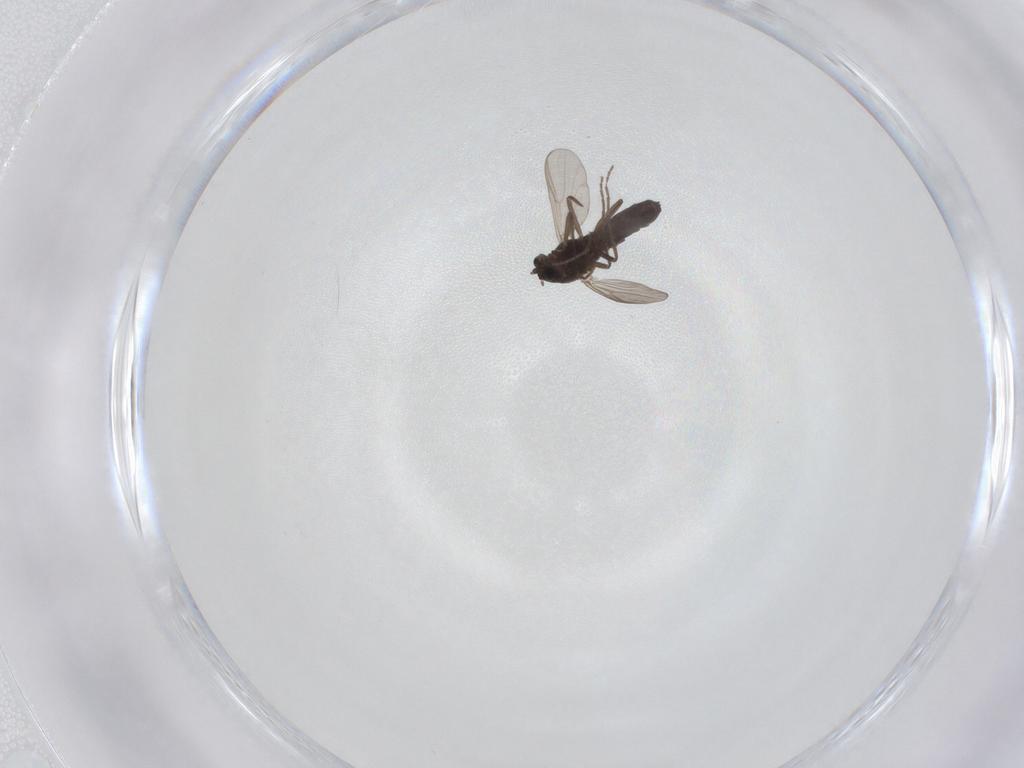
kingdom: Animalia
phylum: Arthropoda
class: Insecta
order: Diptera
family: Chironomidae
